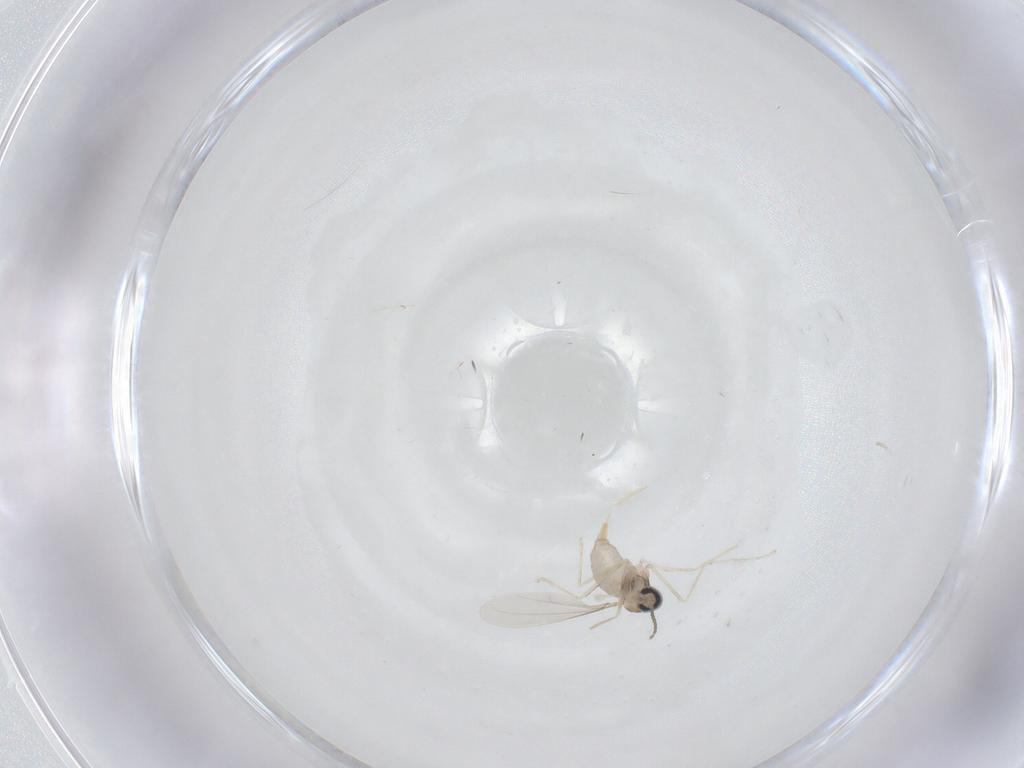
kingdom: Animalia
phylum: Arthropoda
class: Insecta
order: Diptera
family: Cecidomyiidae
